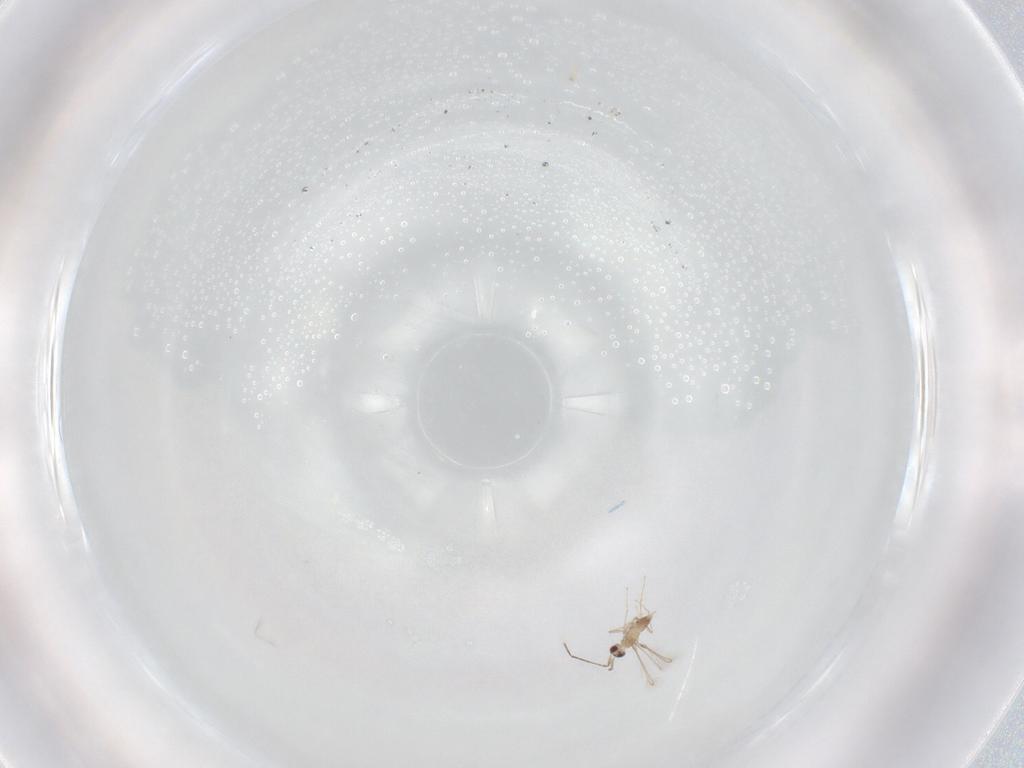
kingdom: Animalia
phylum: Arthropoda
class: Insecta
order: Hymenoptera
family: Mymaridae
